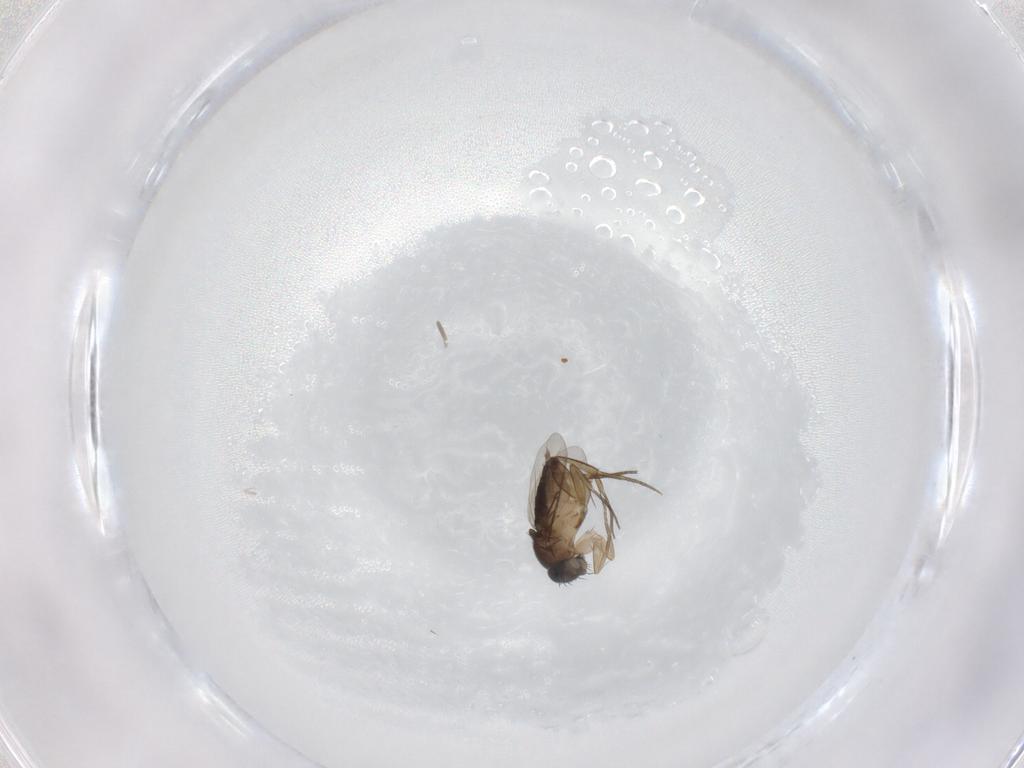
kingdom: Animalia
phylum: Arthropoda
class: Insecta
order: Diptera
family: Phoridae
